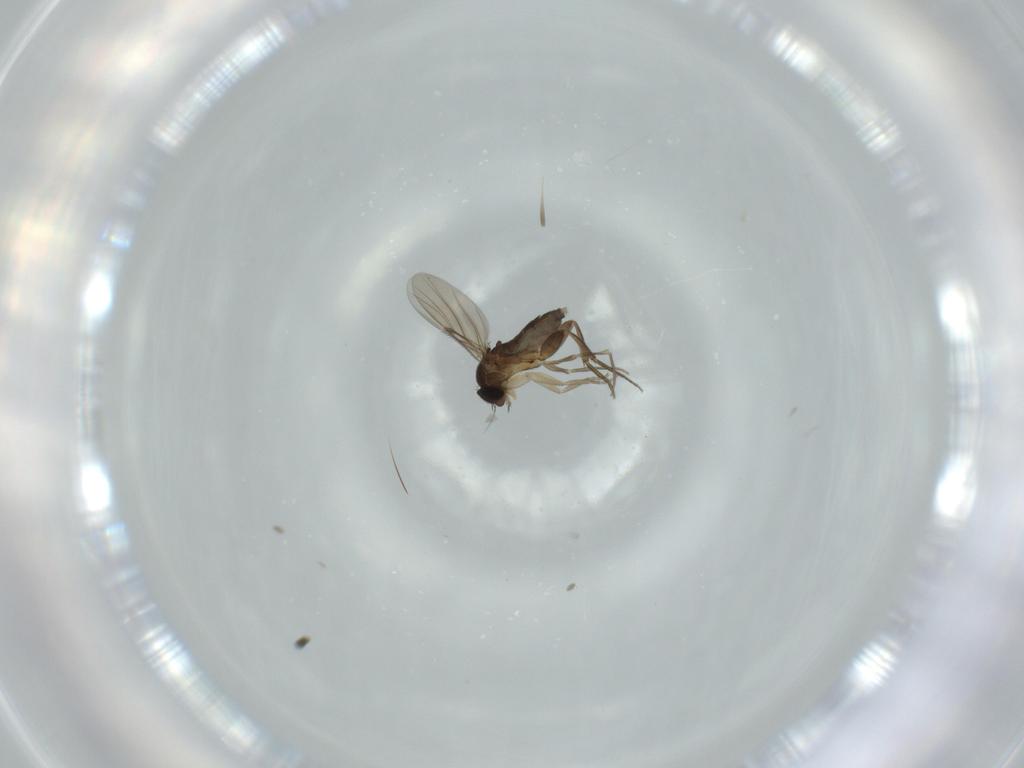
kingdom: Animalia
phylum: Arthropoda
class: Insecta
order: Diptera
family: Phoridae
